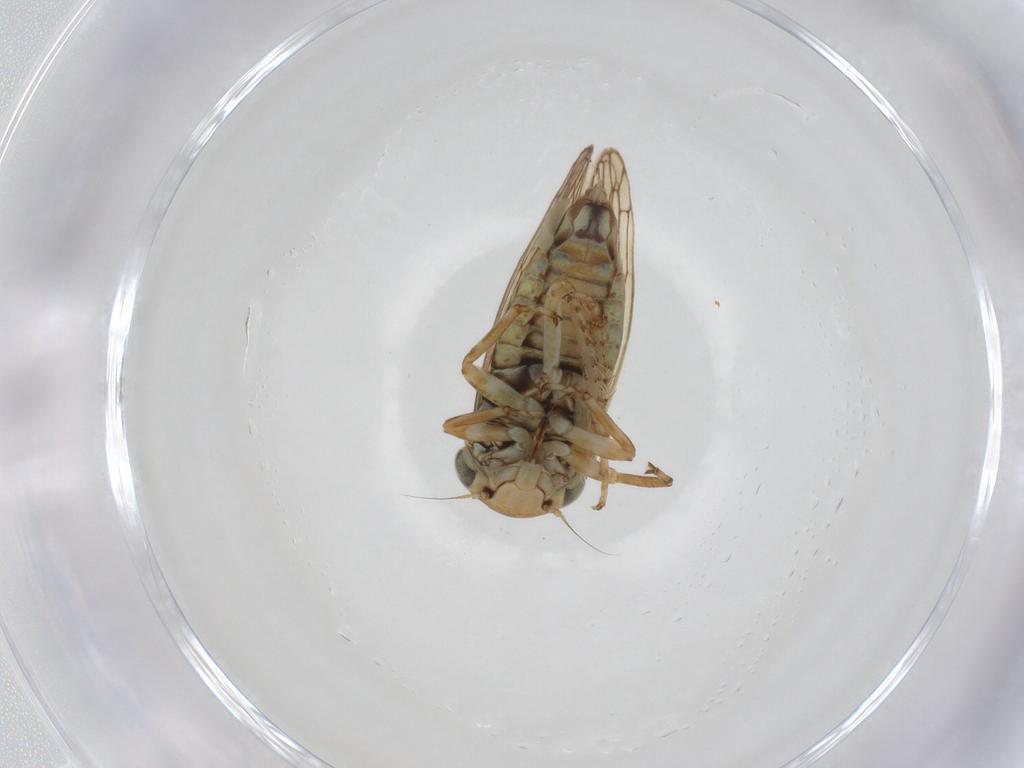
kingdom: Animalia
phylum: Arthropoda
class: Insecta
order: Hemiptera
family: Cicadellidae
